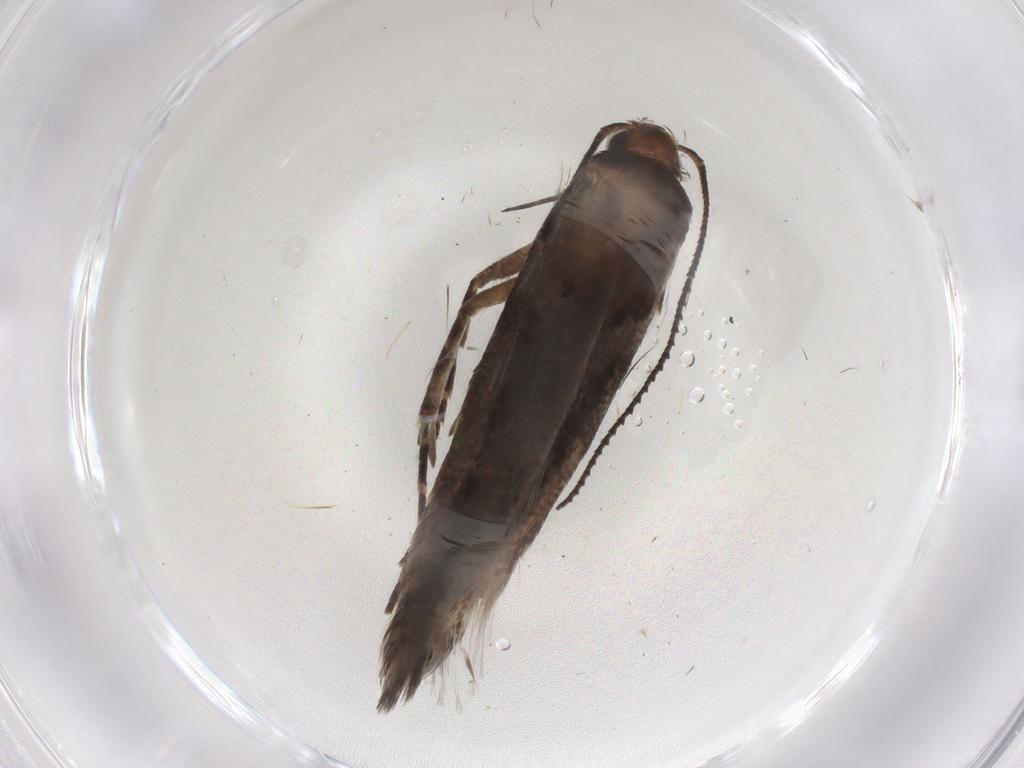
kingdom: Animalia
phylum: Arthropoda
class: Insecta
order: Lepidoptera
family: Gelechiidae
